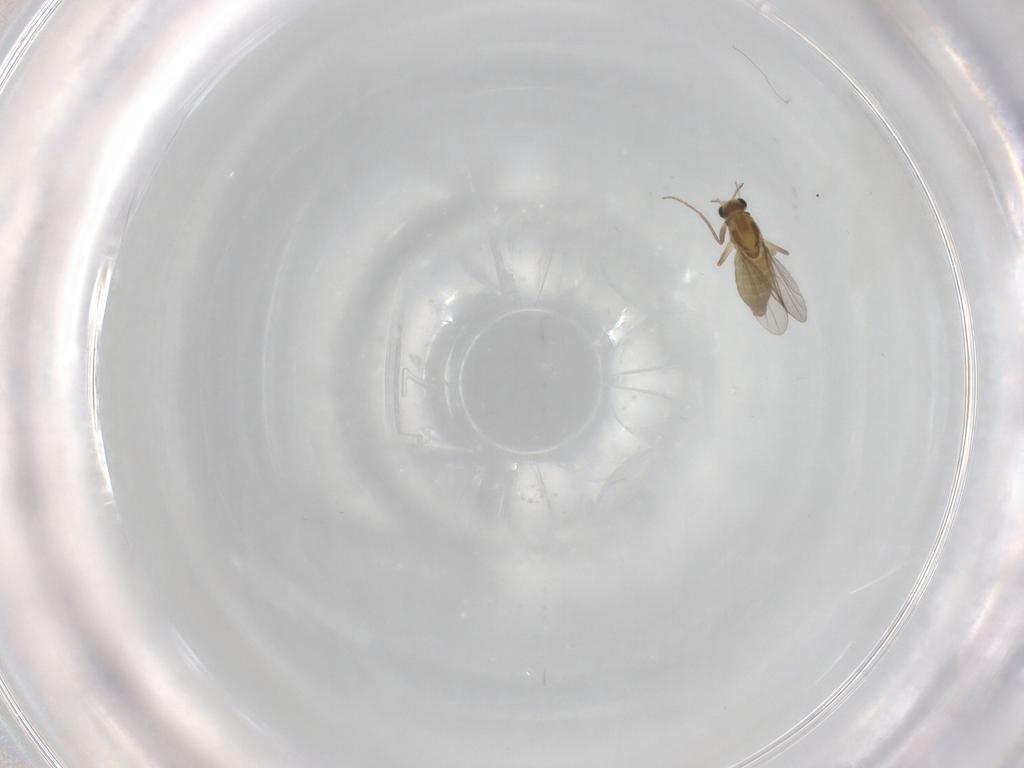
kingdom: Animalia
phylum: Arthropoda
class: Insecta
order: Diptera
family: Chironomidae
